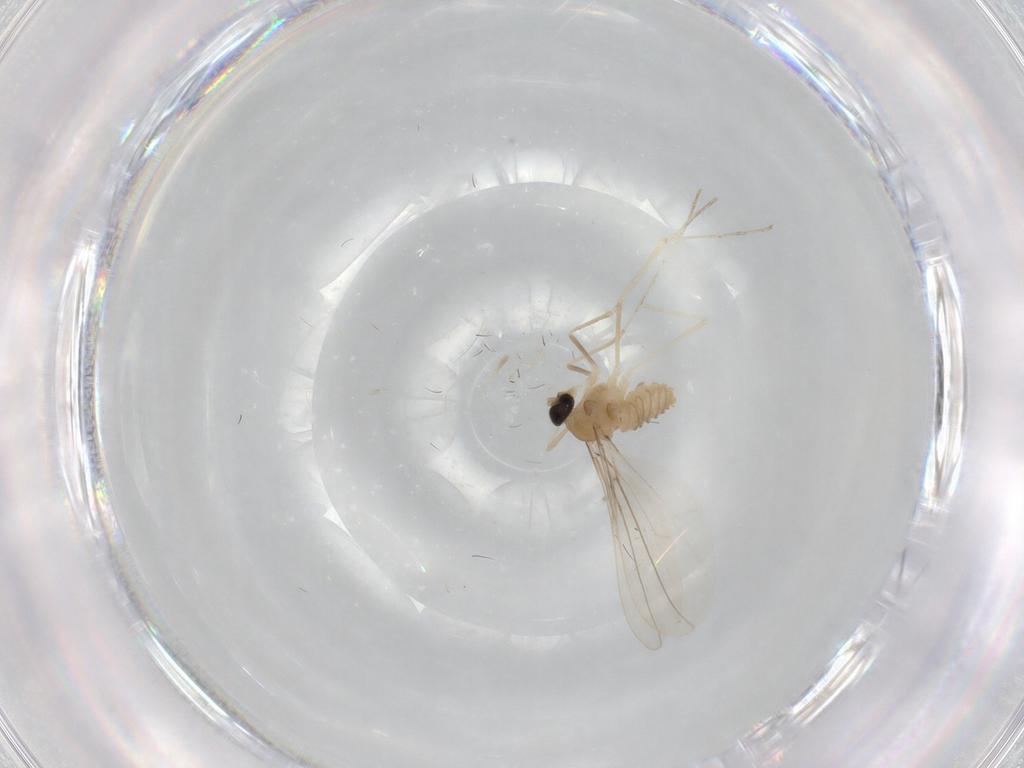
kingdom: Animalia
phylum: Arthropoda
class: Insecta
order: Diptera
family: Cecidomyiidae
